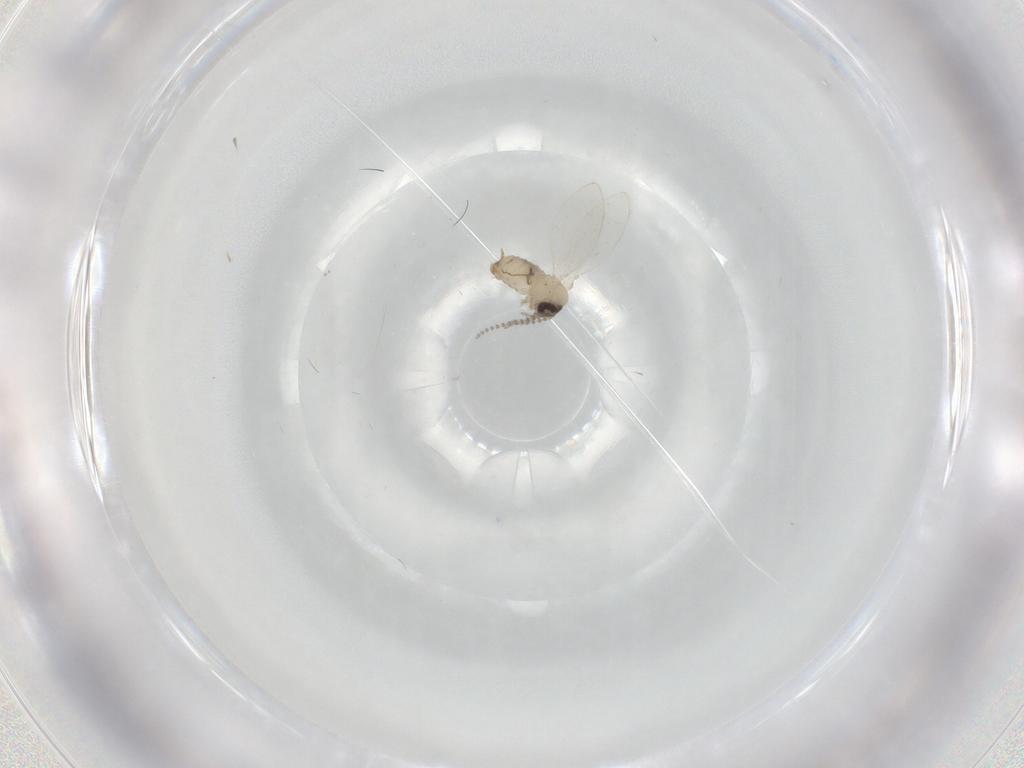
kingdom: Animalia
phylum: Arthropoda
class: Insecta
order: Diptera
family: Psychodidae
